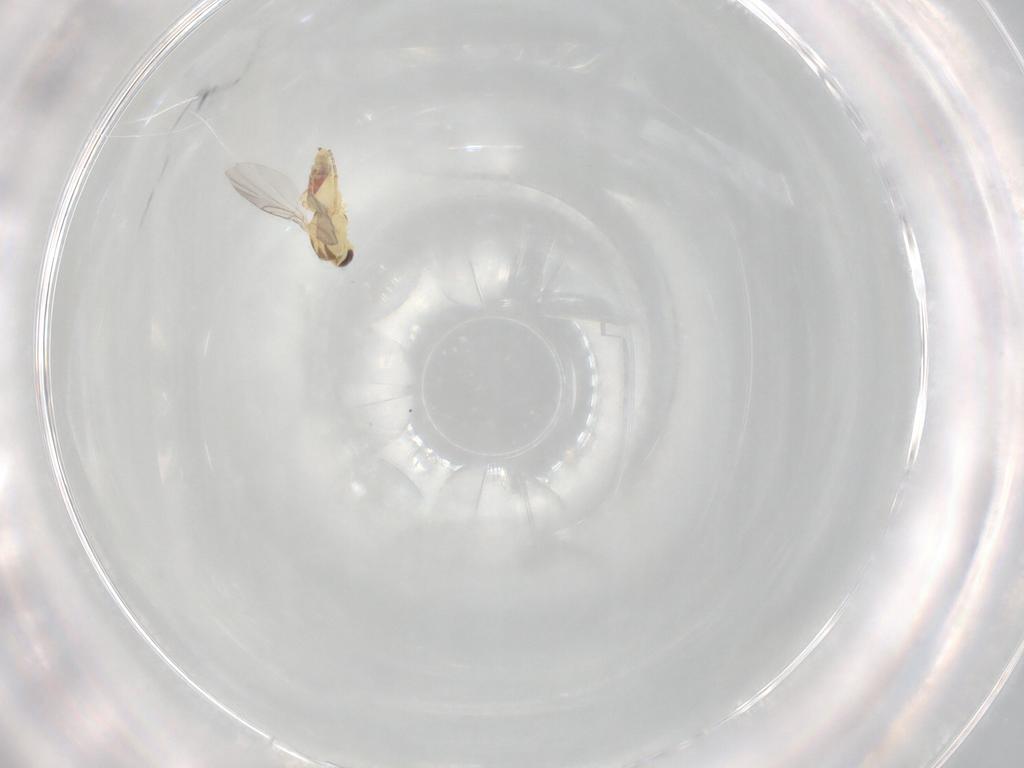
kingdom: Animalia
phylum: Arthropoda
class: Insecta
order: Diptera
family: Agromyzidae
